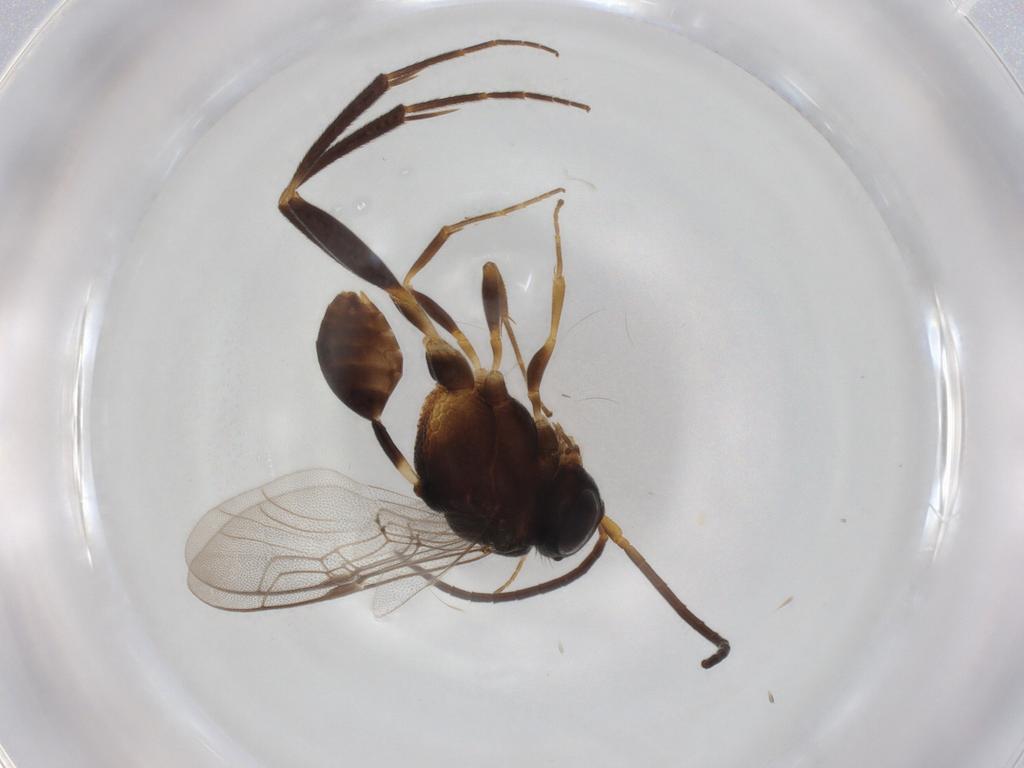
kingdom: Animalia
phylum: Arthropoda
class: Insecta
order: Hymenoptera
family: Evaniidae
